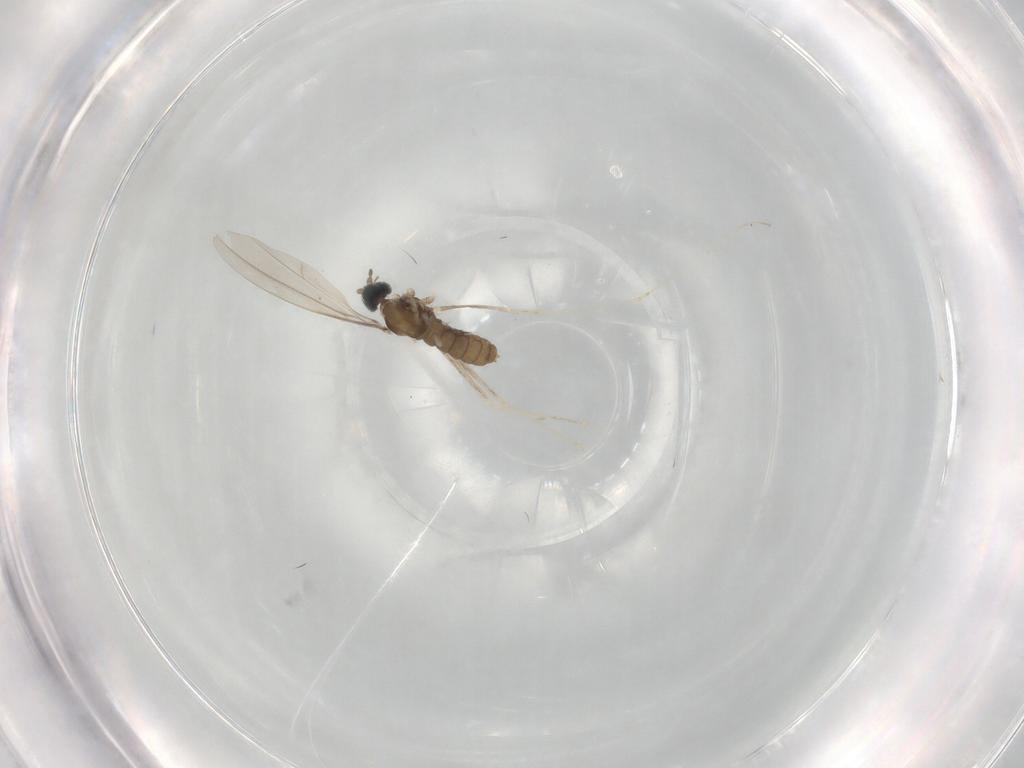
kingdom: Animalia
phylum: Arthropoda
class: Insecta
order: Diptera
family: Cecidomyiidae
